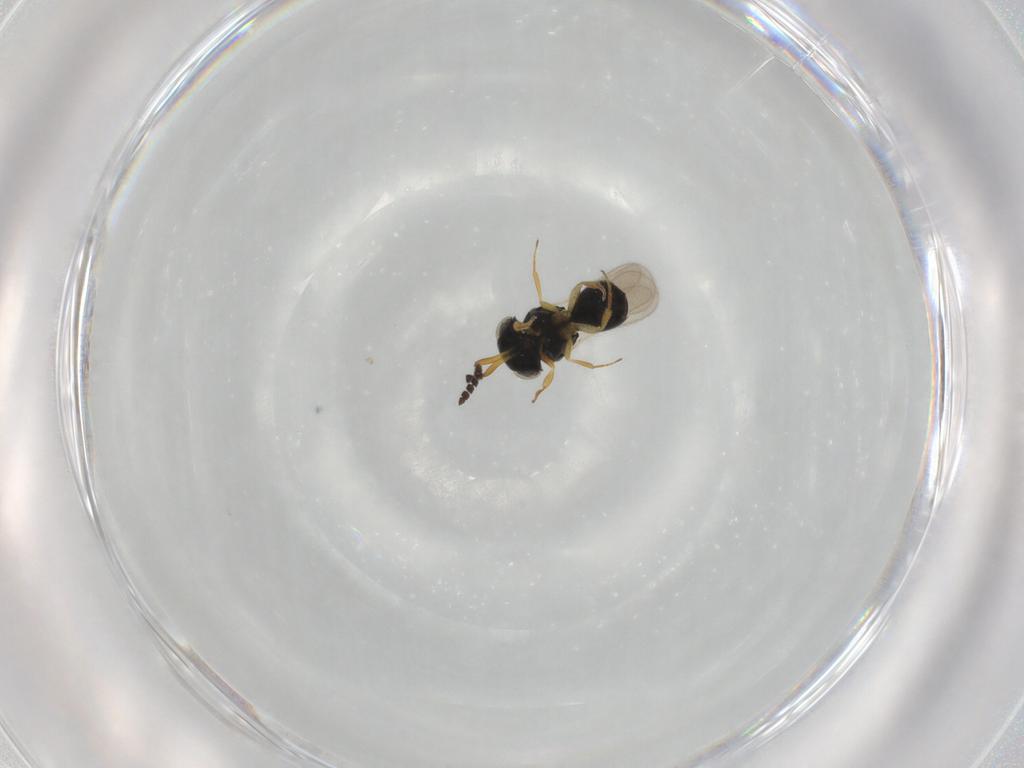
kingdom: Animalia
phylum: Arthropoda
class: Insecta
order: Hymenoptera
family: Scelionidae
